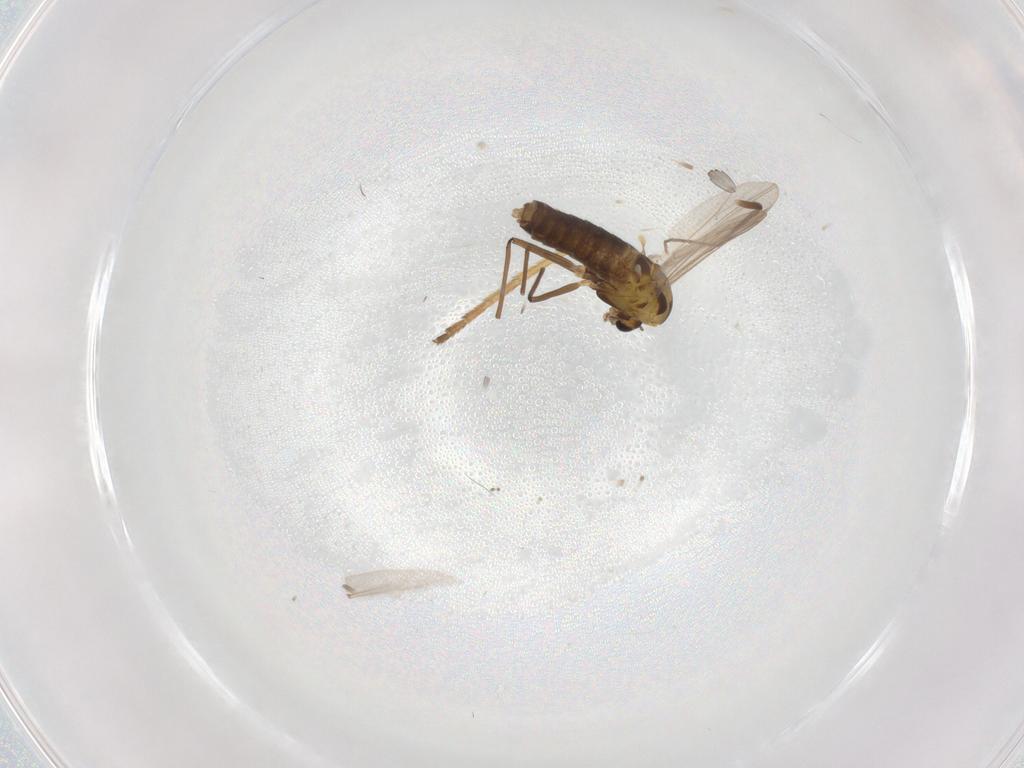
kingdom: Animalia
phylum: Arthropoda
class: Insecta
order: Diptera
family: Chironomidae
